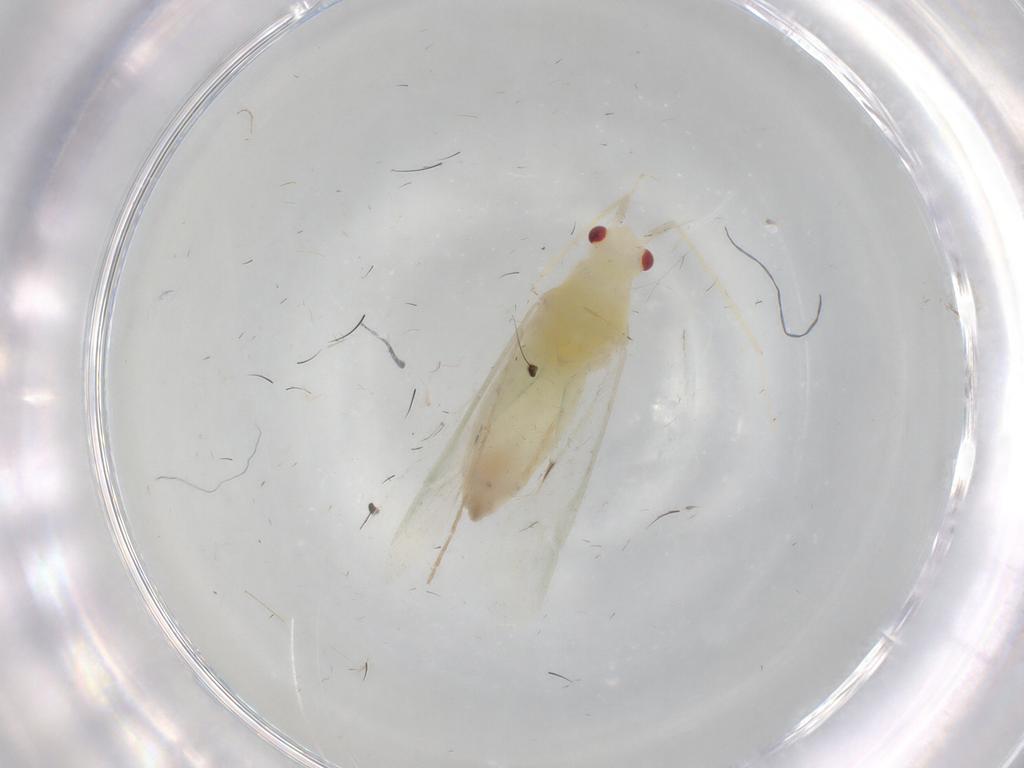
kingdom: Animalia
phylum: Arthropoda
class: Insecta
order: Hemiptera
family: Miridae
